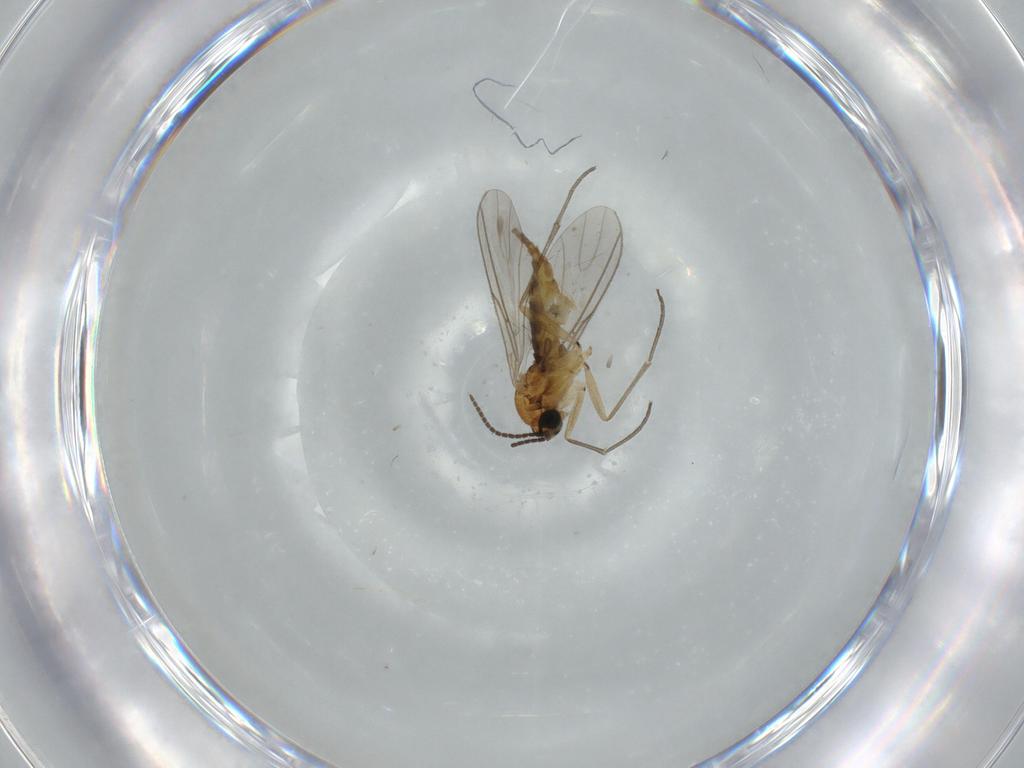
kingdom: Animalia
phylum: Arthropoda
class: Insecta
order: Diptera
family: Sciaridae
